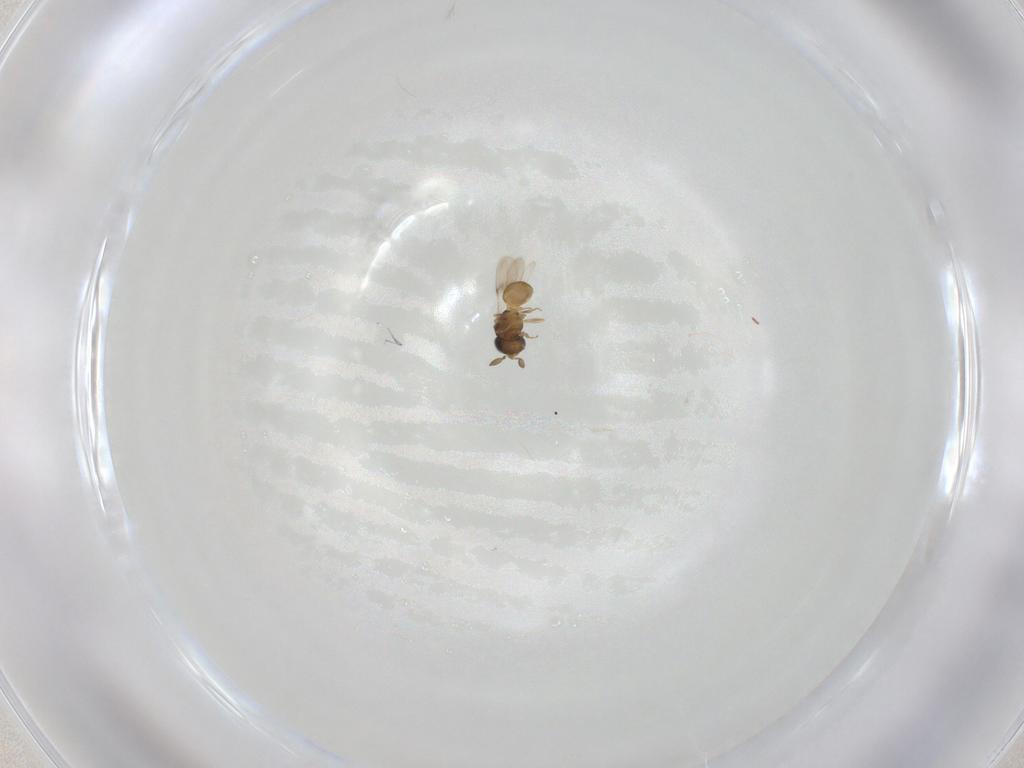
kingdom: Animalia
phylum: Arthropoda
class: Insecta
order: Hymenoptera
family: Scelionidae
